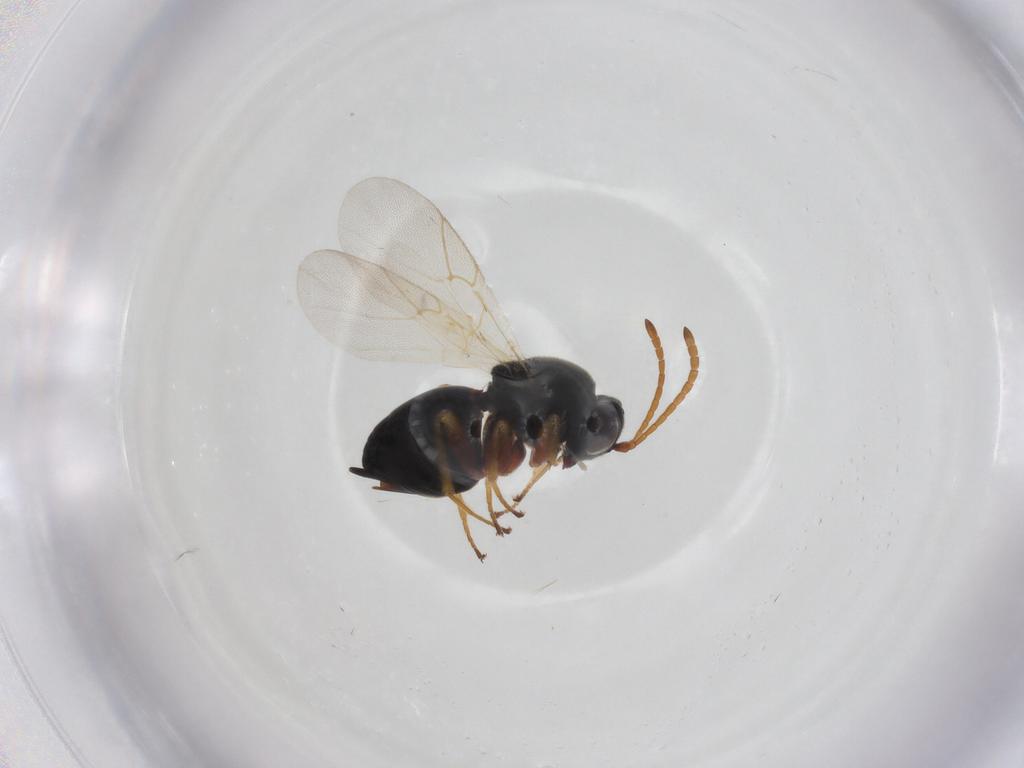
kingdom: Animalia
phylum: Arthropoda
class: Insecta
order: Hymenoptera
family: Cynipidae
